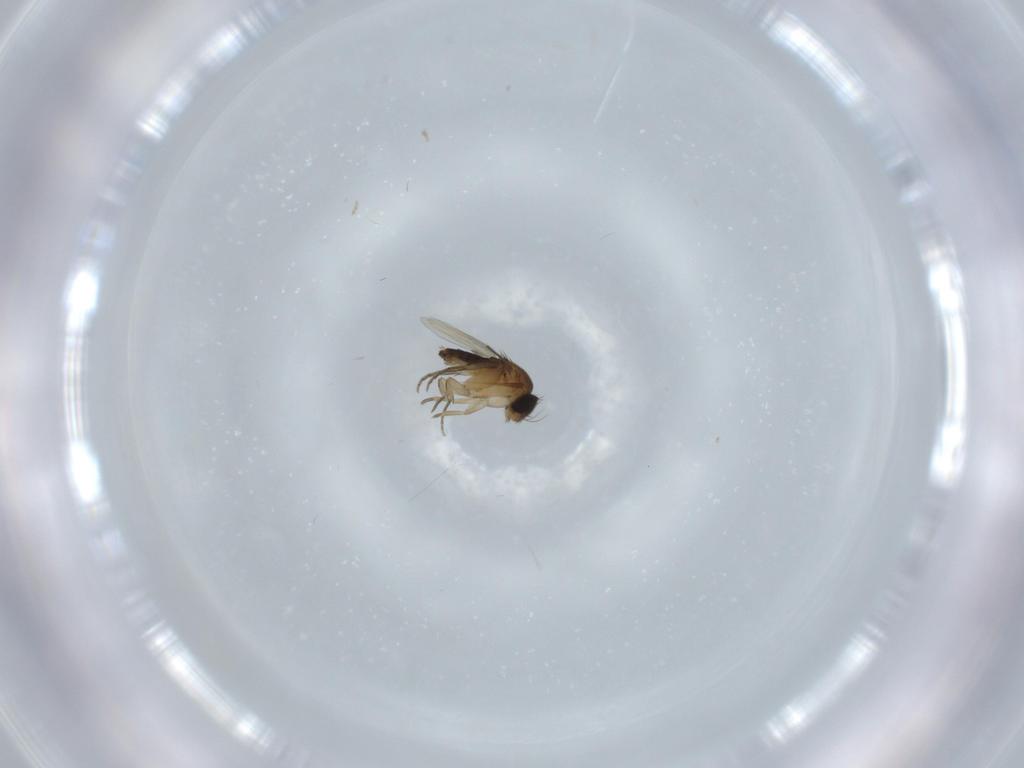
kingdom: Animalia
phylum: Arthropoda
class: Insecta
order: Diptera
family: Phoridae
